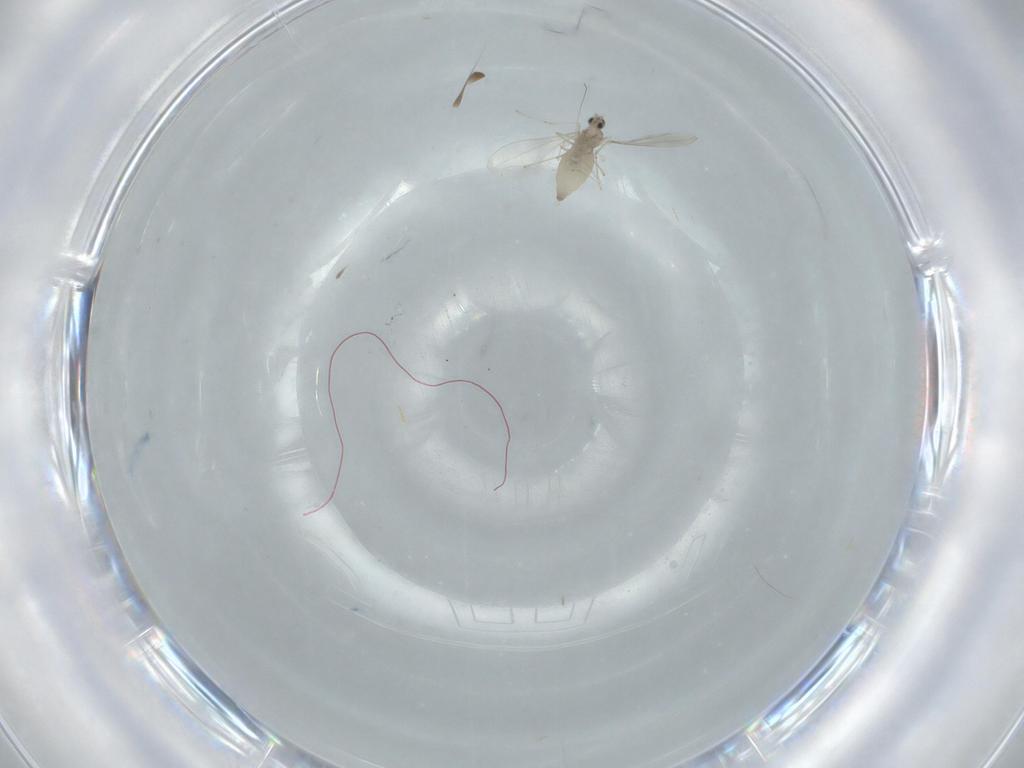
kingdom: Animalia
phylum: Arthropoda
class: Insecta
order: Diptera
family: Cecidomyiidae
